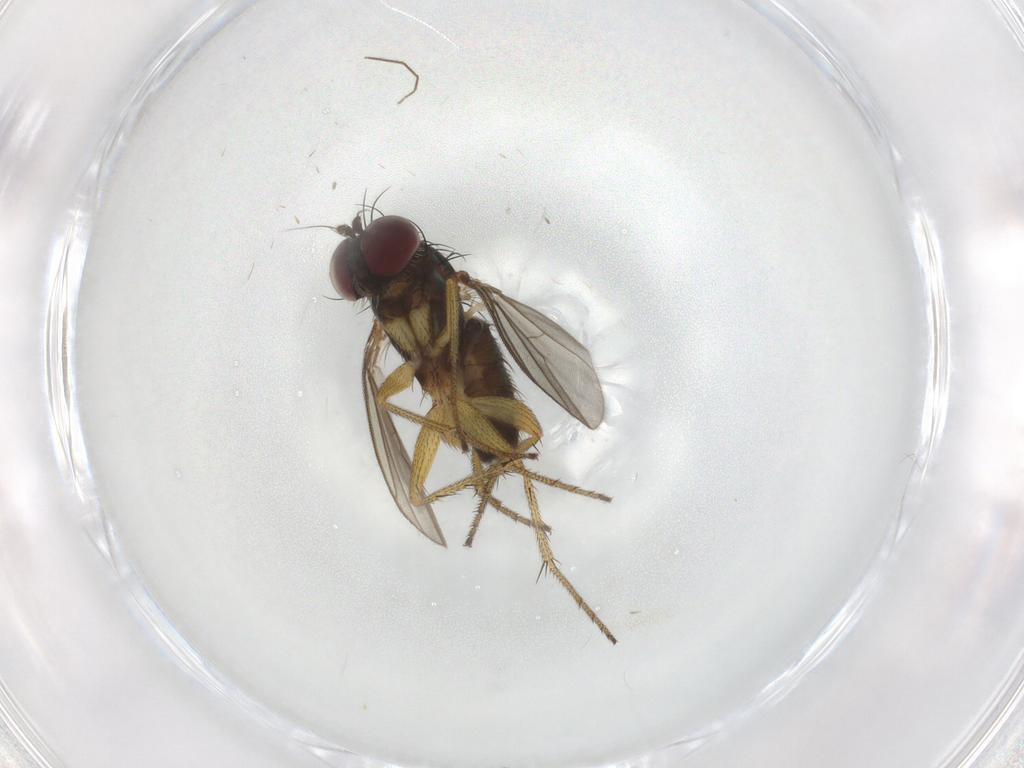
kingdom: Animalia
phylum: Arthropoda
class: Insecta
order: Diptera
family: Dolichopodidae
